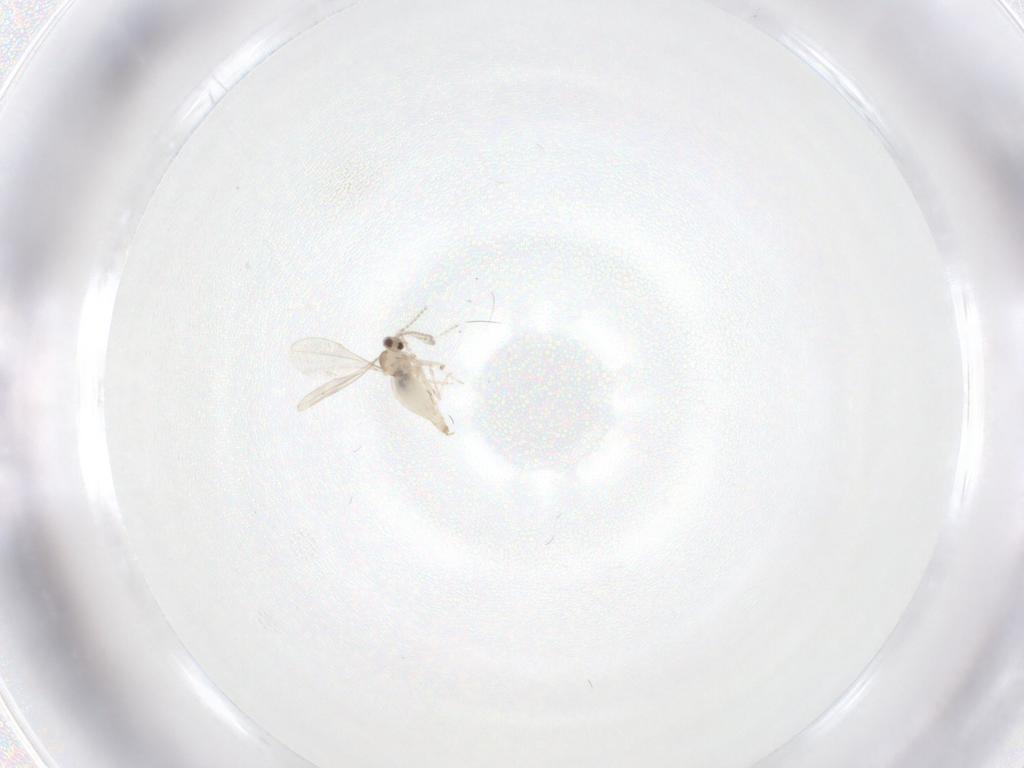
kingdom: Animalia
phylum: Arthropoda
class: Insecta
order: Diptera
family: Cecidomyiidae
